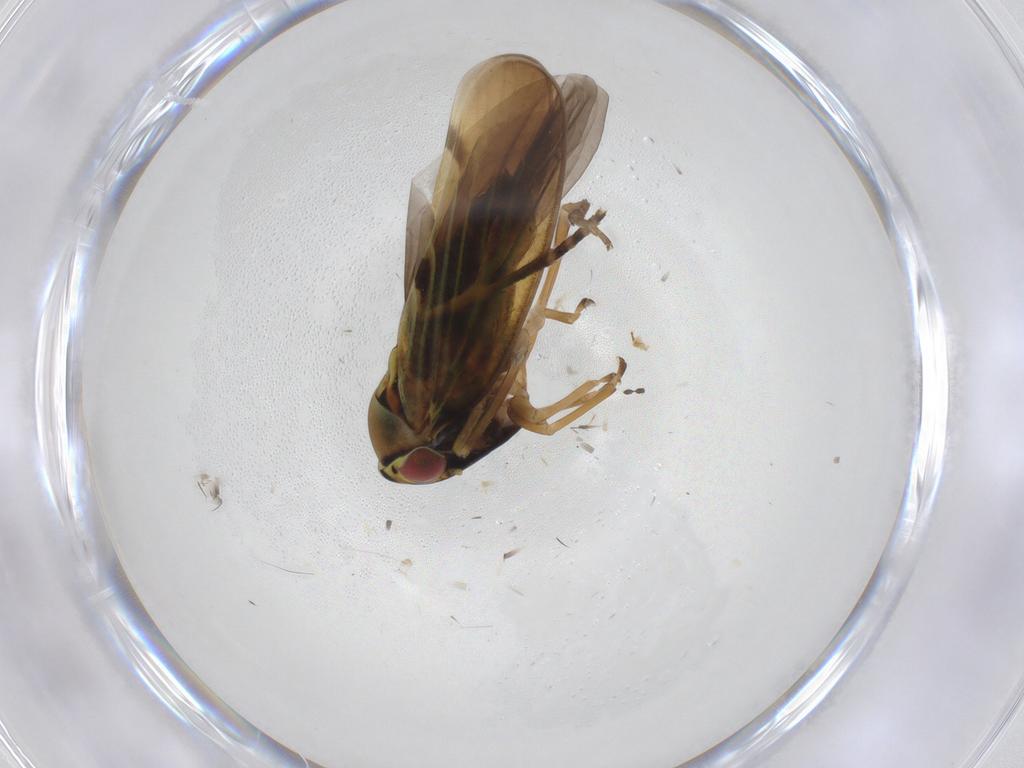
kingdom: Animalia
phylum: Arthropoda
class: Insecta
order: Hemiptera
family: Cicadellidae
